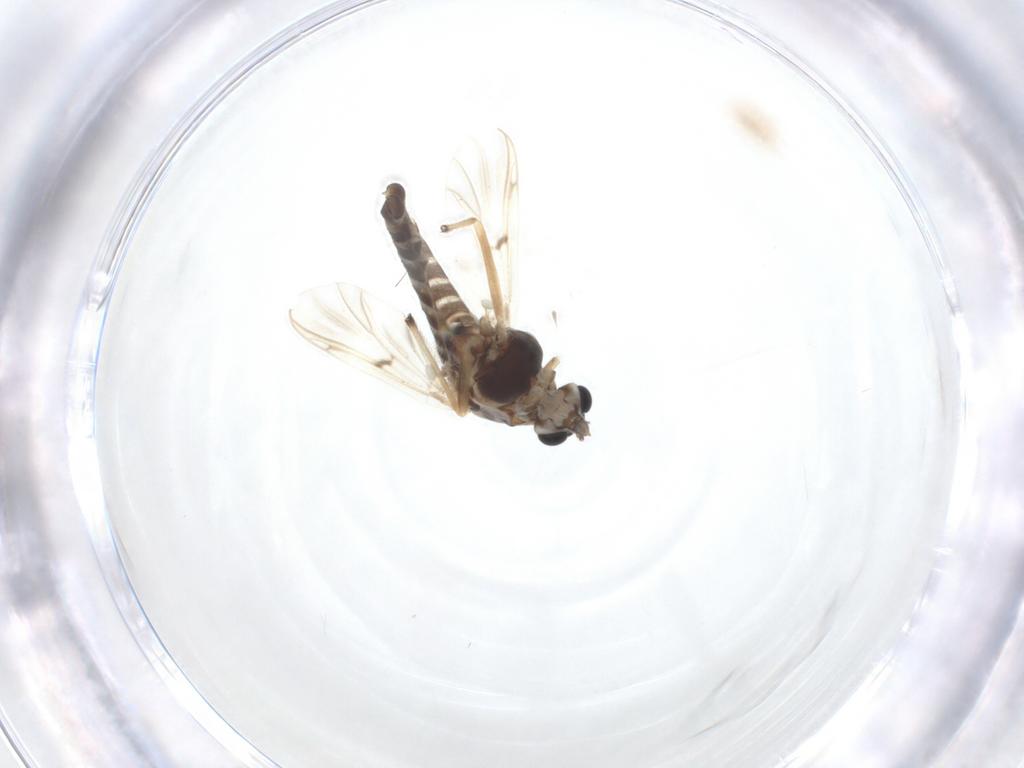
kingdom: Animalia
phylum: Arthropoda
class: Insecta
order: Diptera
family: Chironomidae
